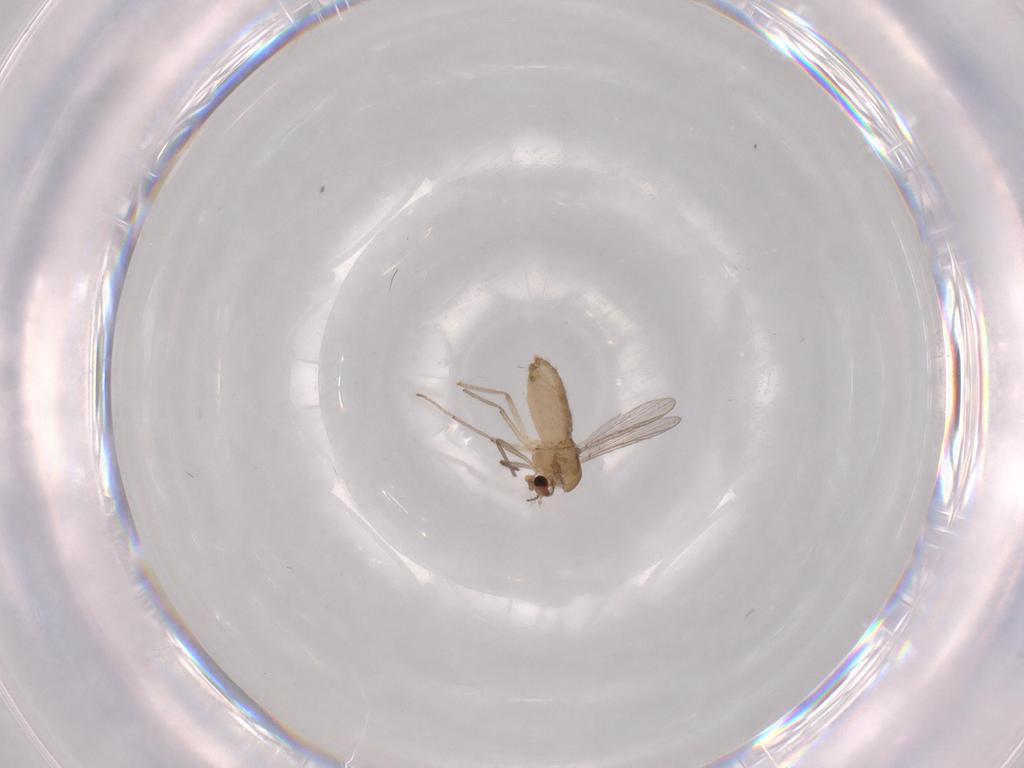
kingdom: Animalia
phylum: Arthropoda
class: Insecta
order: Diptera
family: Chironomidae
